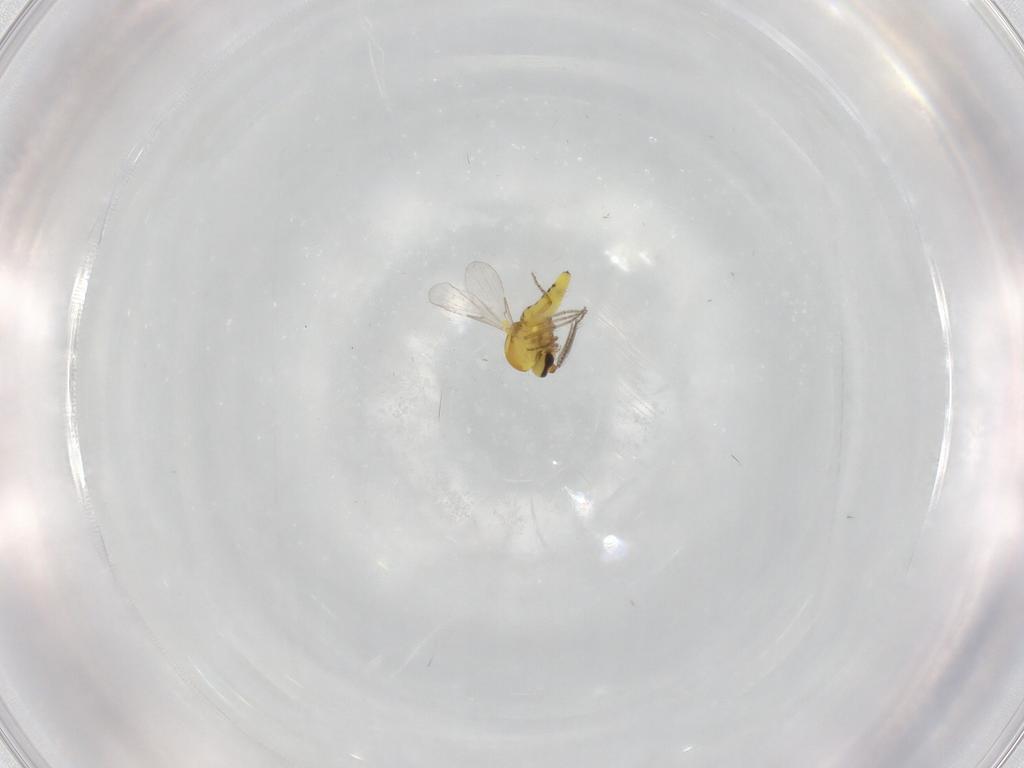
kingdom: Animalia
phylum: Arthropoda
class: Insecta
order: Diptera
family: Ceratopogonidae
